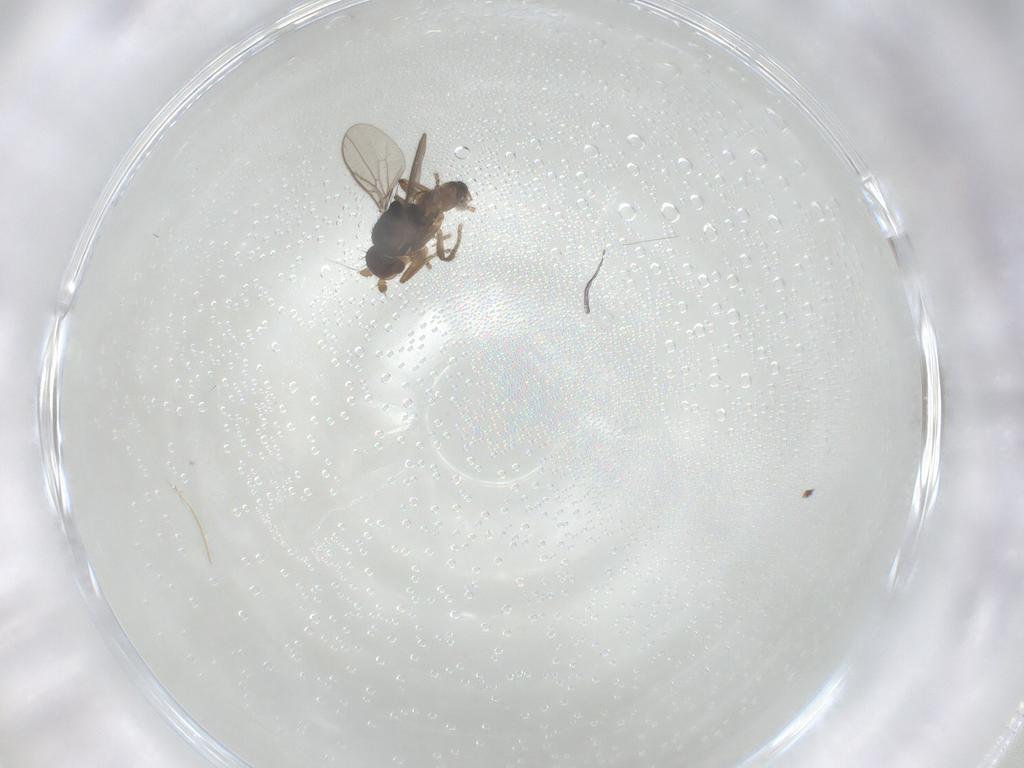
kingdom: Animalia
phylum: Arthropoda
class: Insecta
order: Diptera
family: Sphaeroceridae
